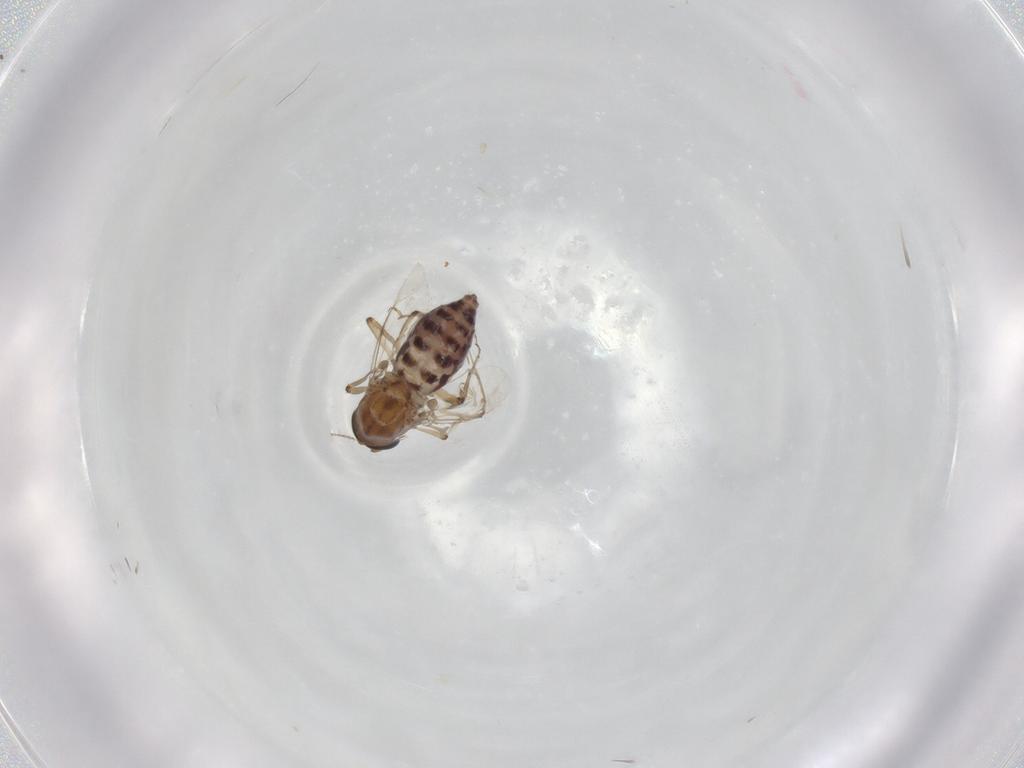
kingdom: Animalia
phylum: Arthropoda
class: Insecta
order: Diptera
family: Ceratopogonidae
